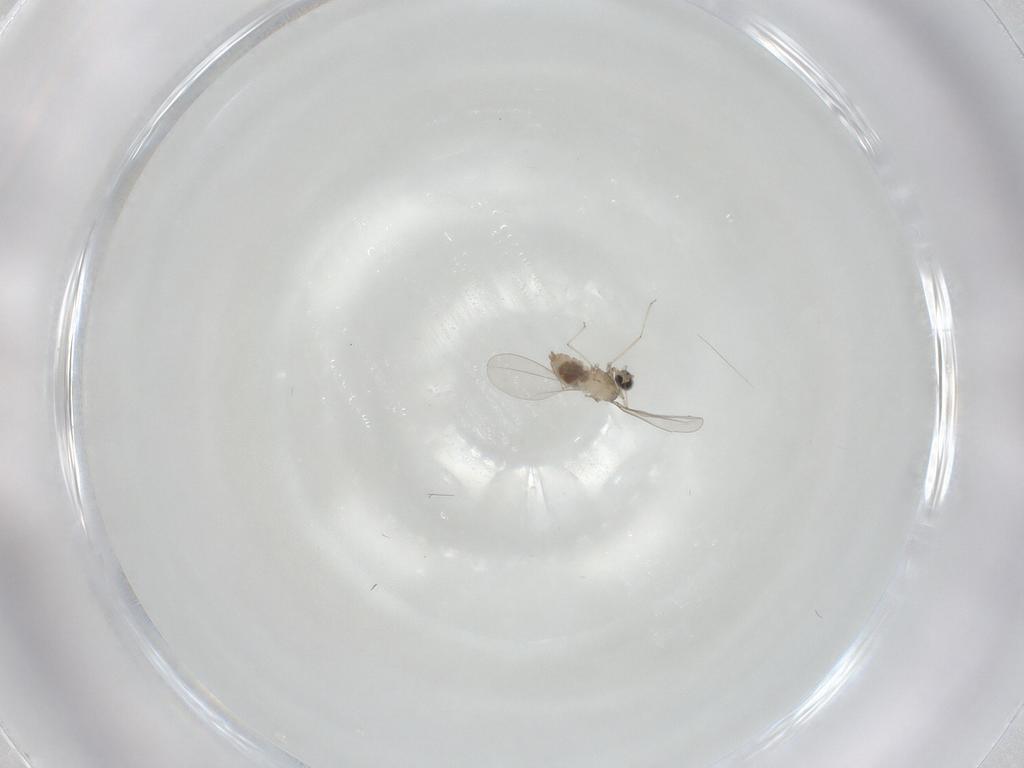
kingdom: Animalia
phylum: Arthropoda
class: Insecta
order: Diptera
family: Cecidomyiidae
